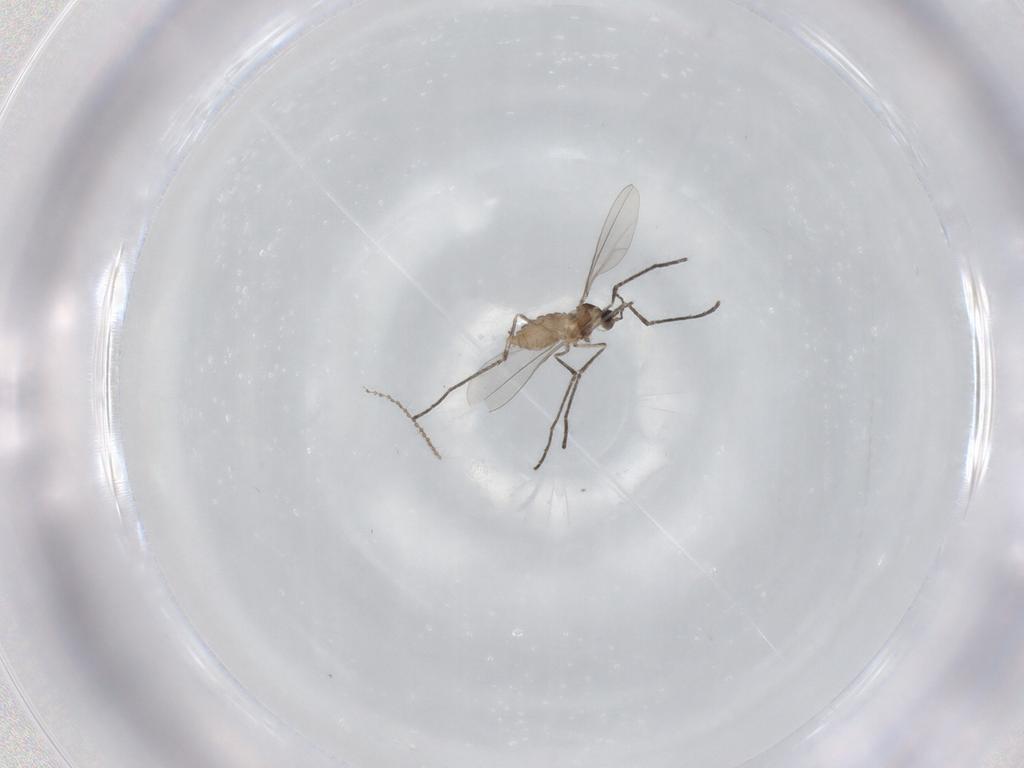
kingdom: Animalia
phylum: Arthropoda
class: Insecta
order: Diptera
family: Cecidomyiidae
